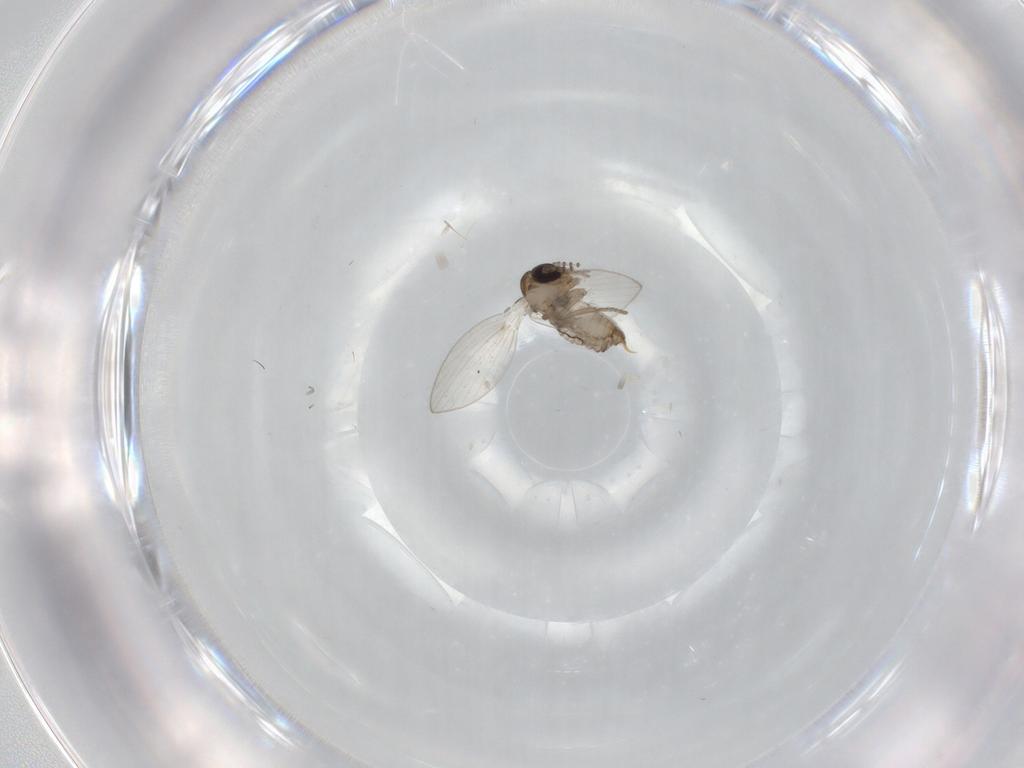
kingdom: Animalia
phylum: Arthropoda
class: Insecta
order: Diptera
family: Psychodidae
